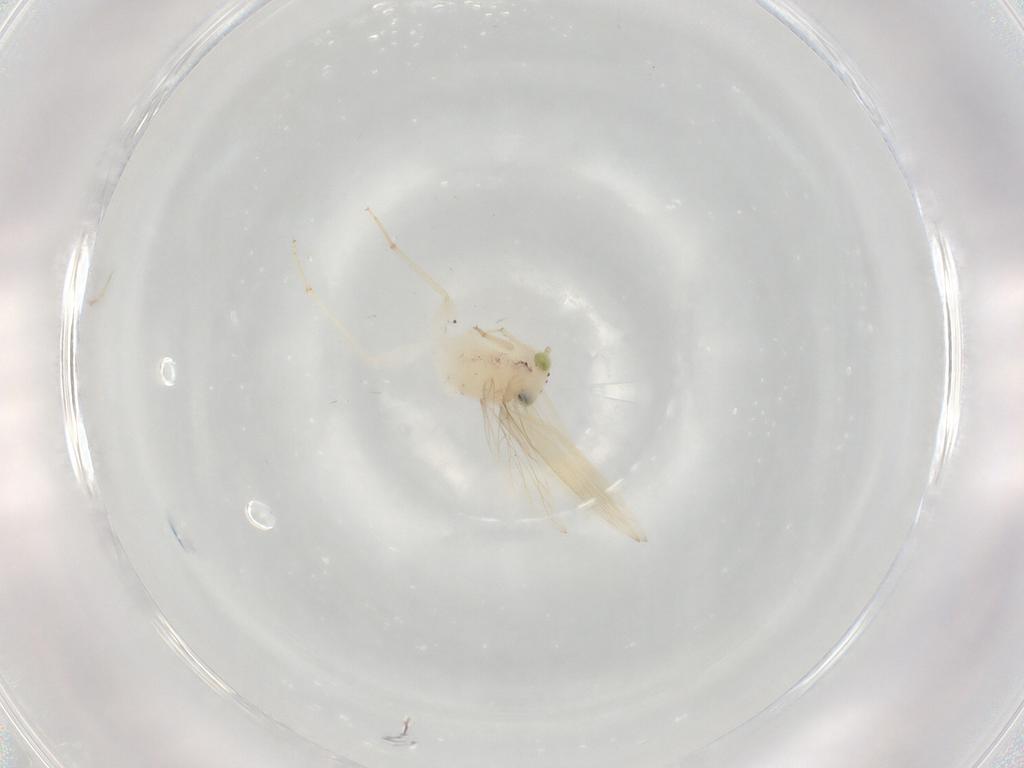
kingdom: Animalia
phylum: Arthropoda
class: Insecta
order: Psocodea
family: Lepidopsocidae
